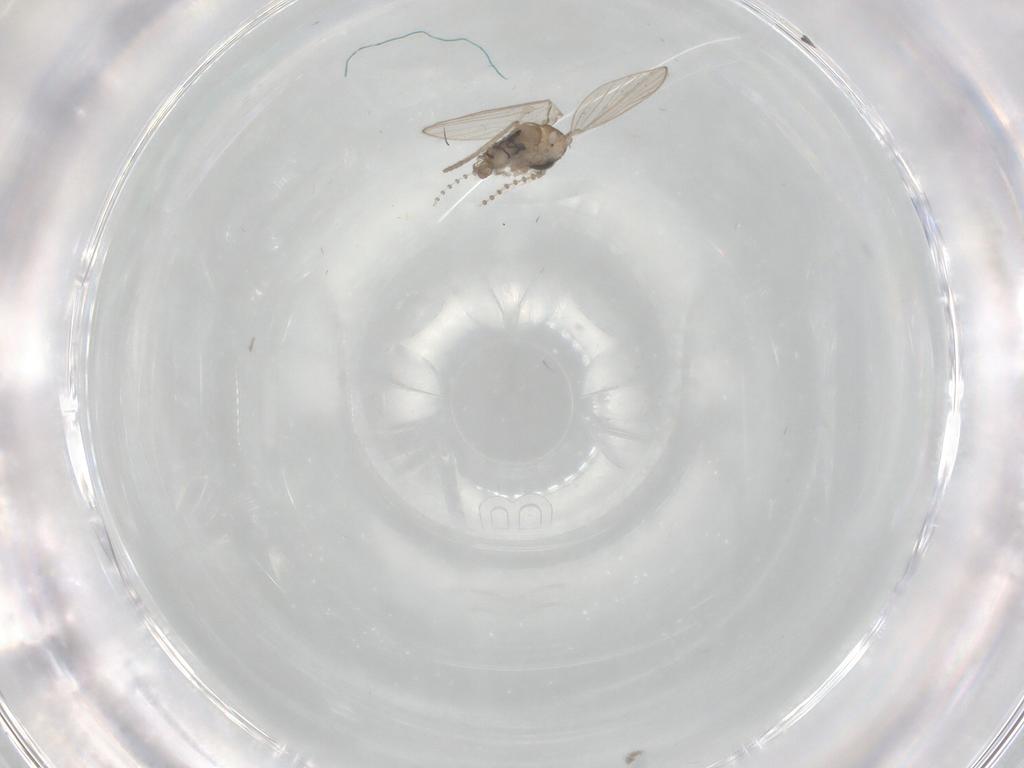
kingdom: Animalia
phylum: Arthropoda
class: Insecta
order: Diptera
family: Psychodidae
